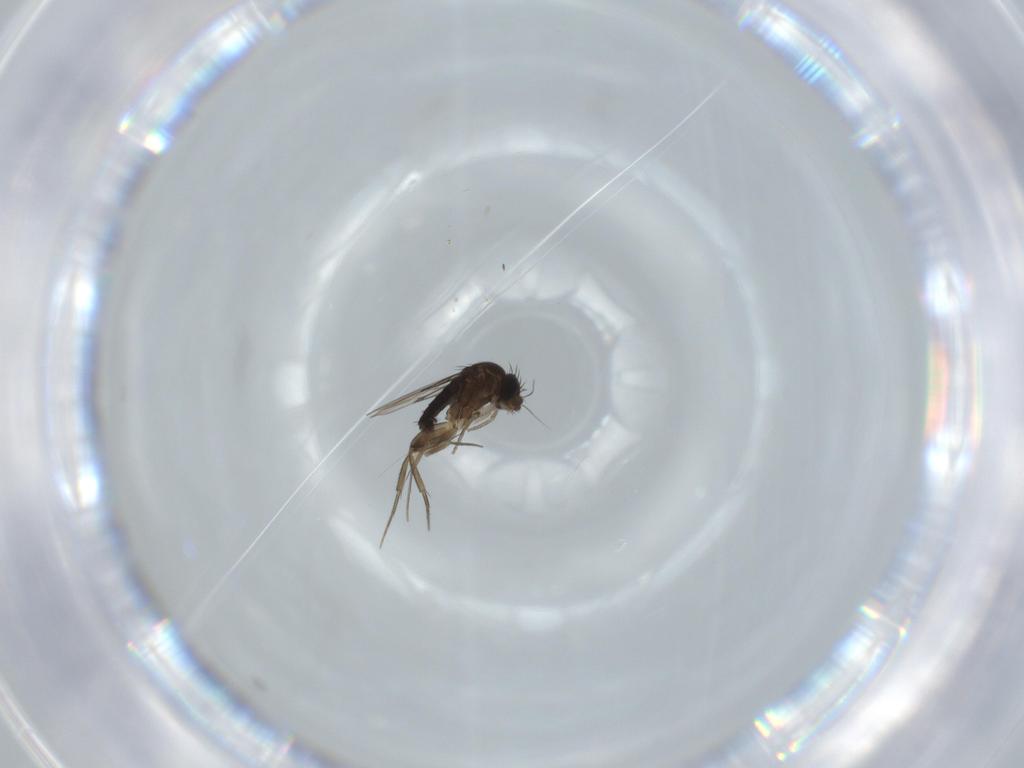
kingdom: Animalia
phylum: Arthropoda
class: Insecta
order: Diptera
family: Phoridae
